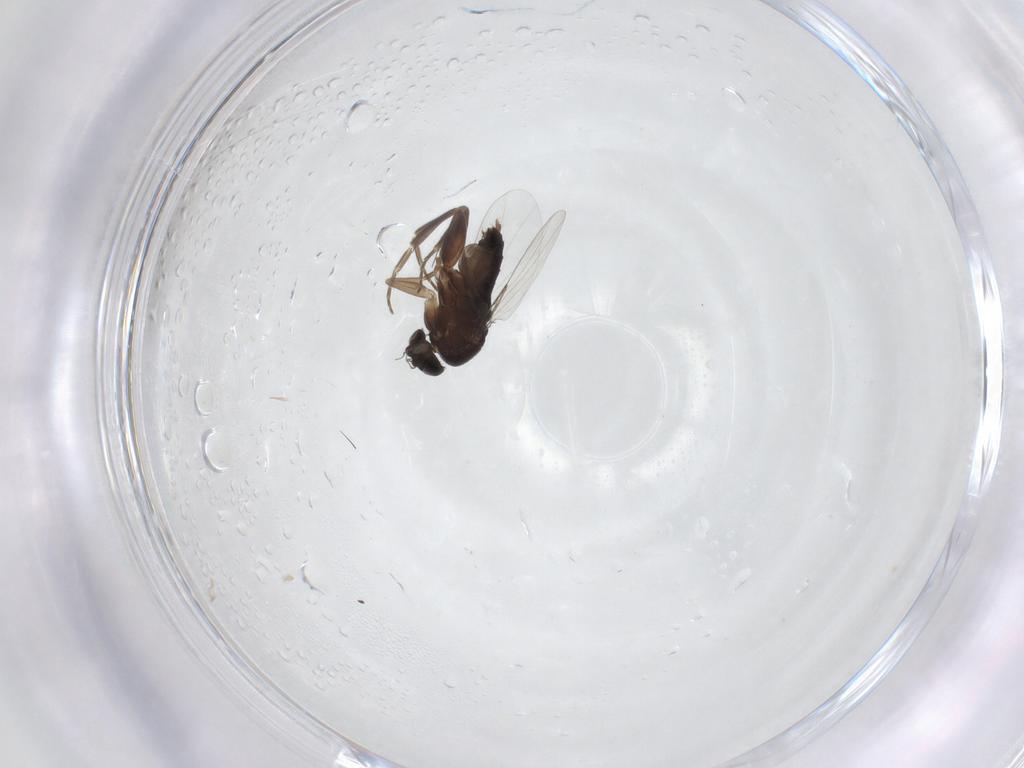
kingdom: Animalia
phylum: Arthropoda
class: Insecta
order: Diptera
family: Phoridae
